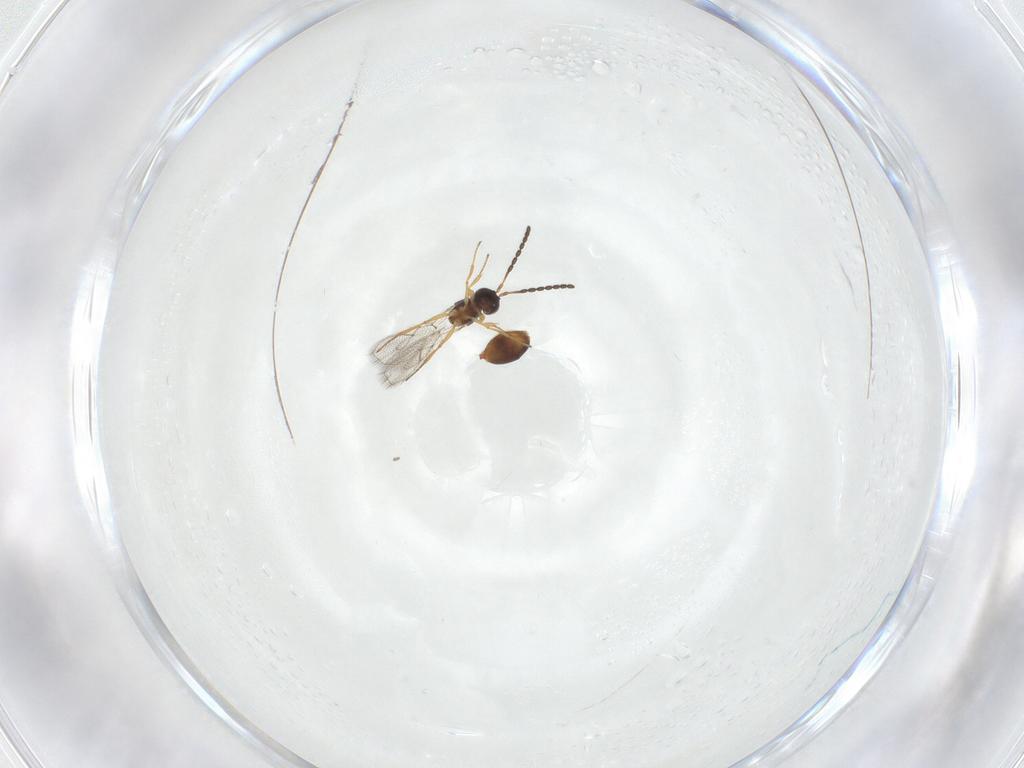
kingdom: Animalia
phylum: Arthropoda
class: Insecta
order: Hymenoptera
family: Figitidae
